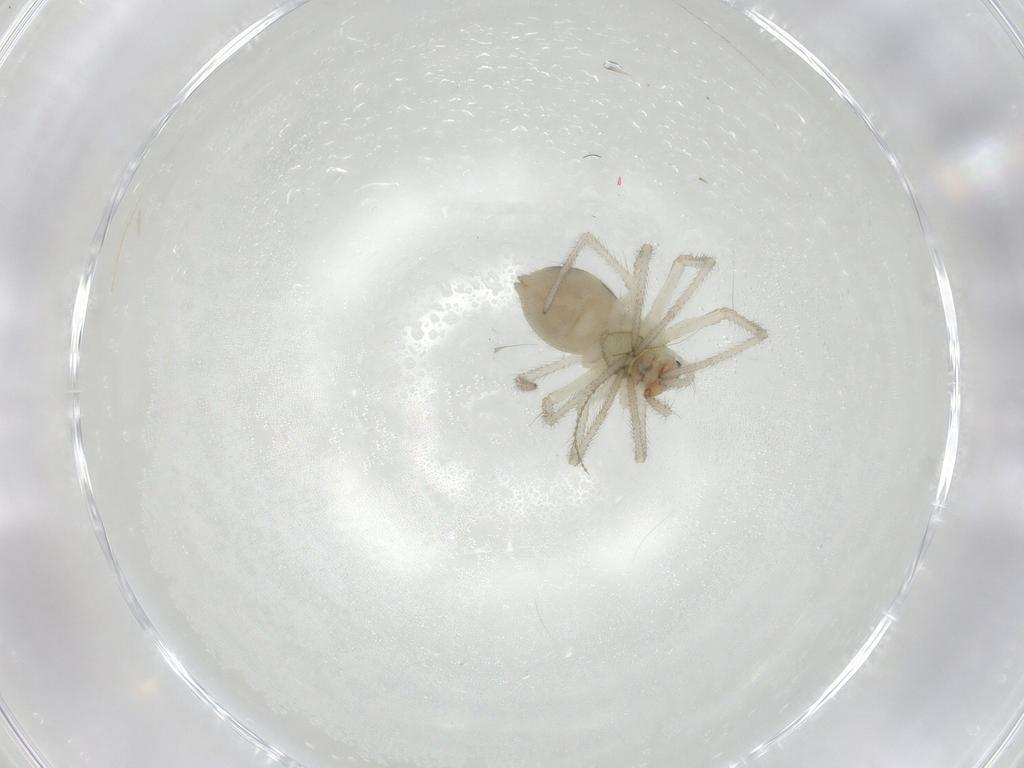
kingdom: Animalia
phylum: Arthropoda
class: Arachnida
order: Araneae
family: Linyphiidae
